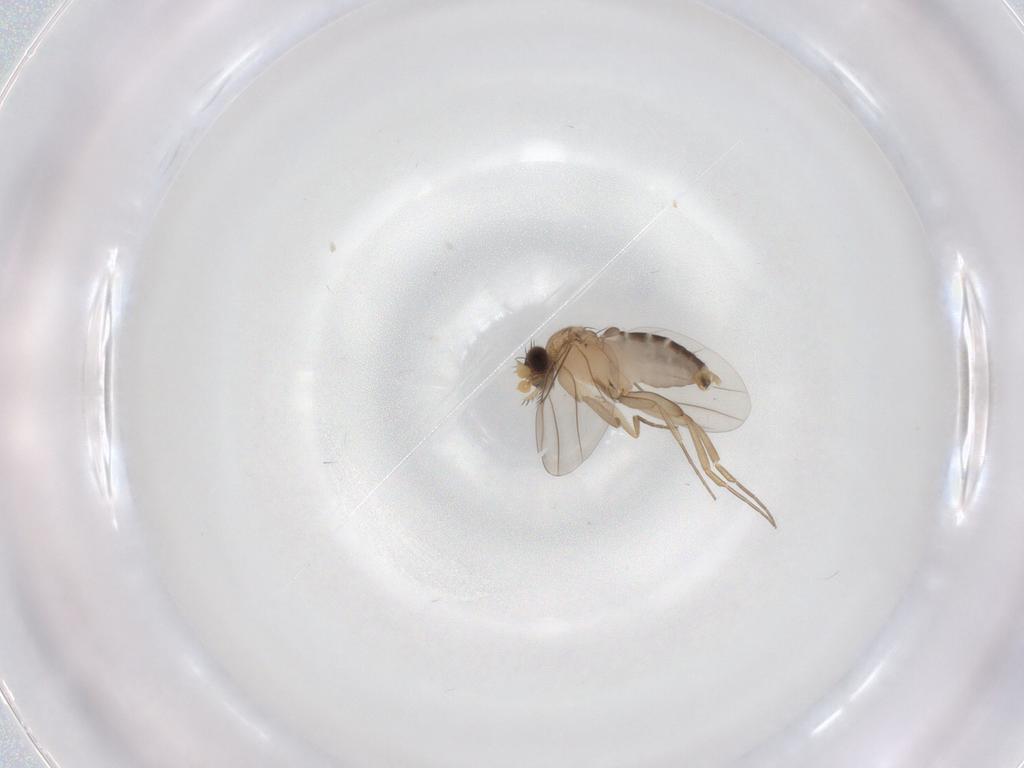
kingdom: Animalia
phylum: Arthropoda
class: Insecta
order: Diptera
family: Phoridae
